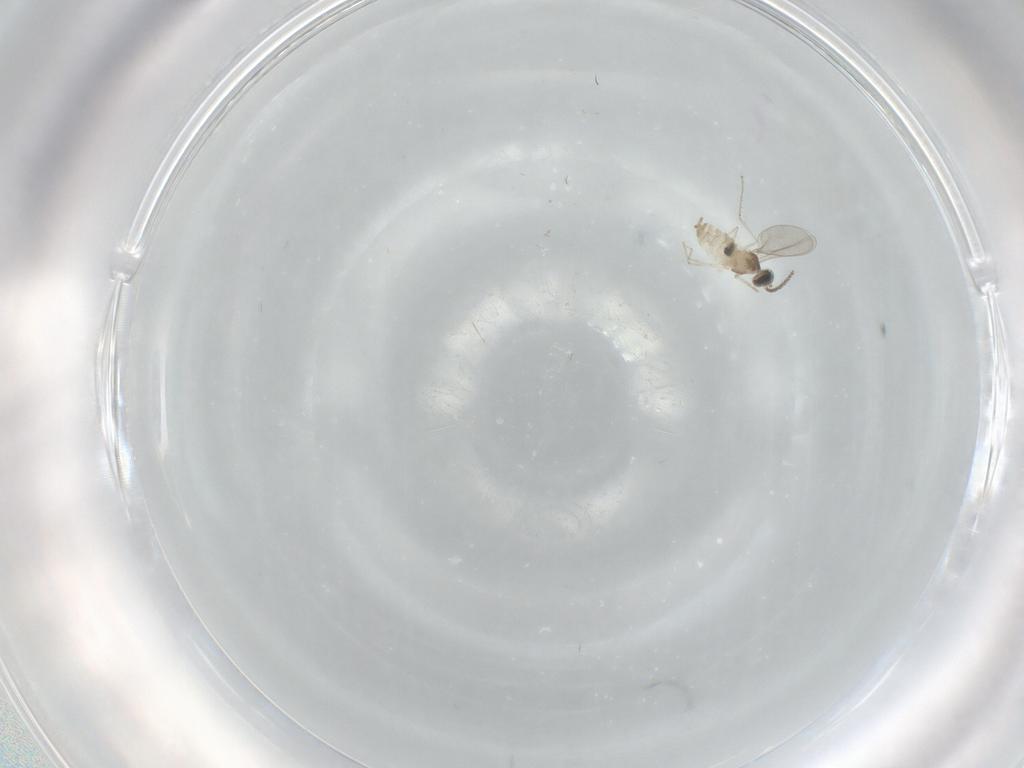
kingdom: Animalia
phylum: Arthropoda
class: Insecta
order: Diptera
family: Cecidomyiidae
